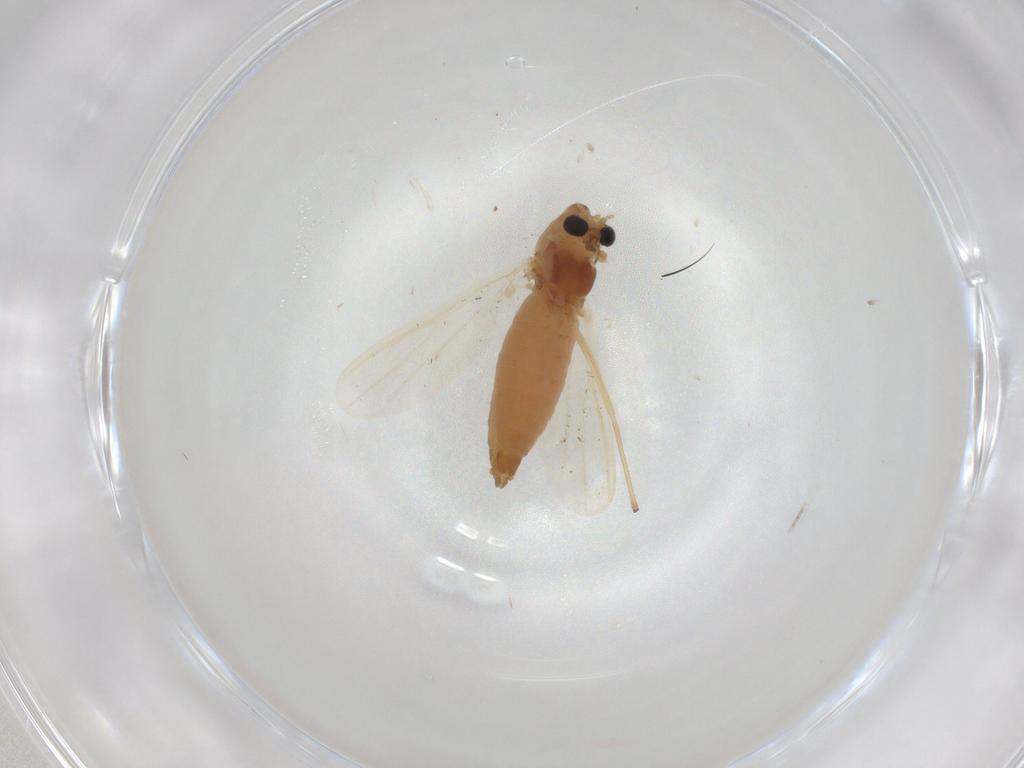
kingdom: Animalia
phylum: Arthropoda
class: Insecta
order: Diptera
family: Chironomidae
